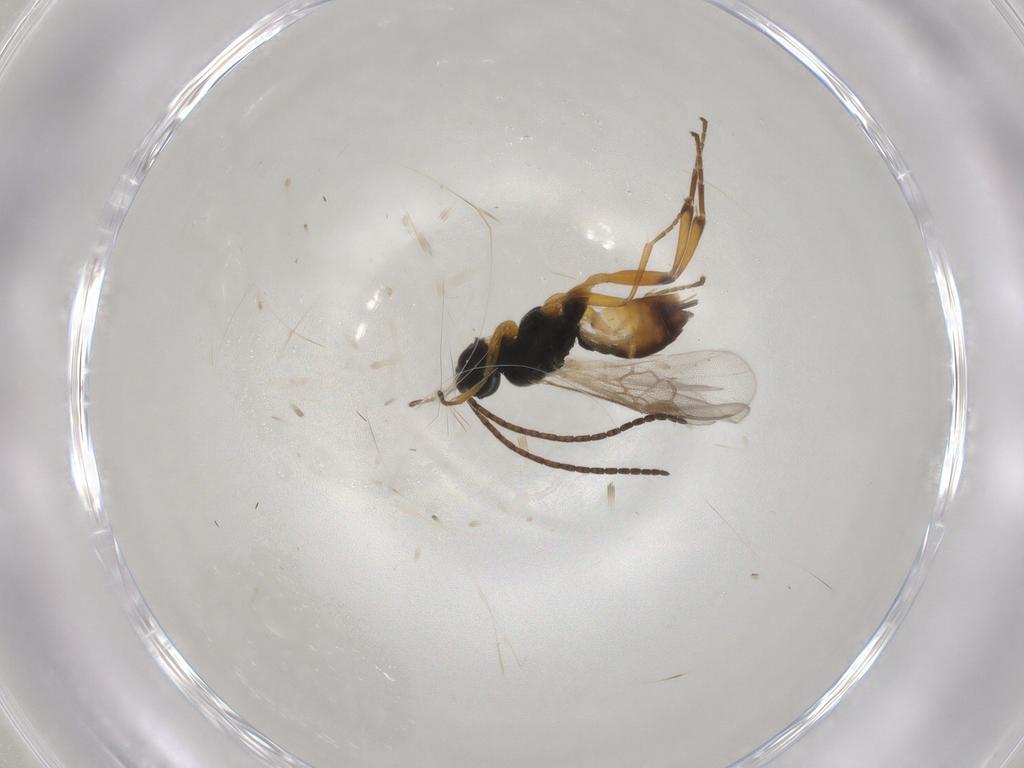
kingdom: Animalia
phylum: Arthropoda
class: Insecta
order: Hymenoptera
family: Braconidae
